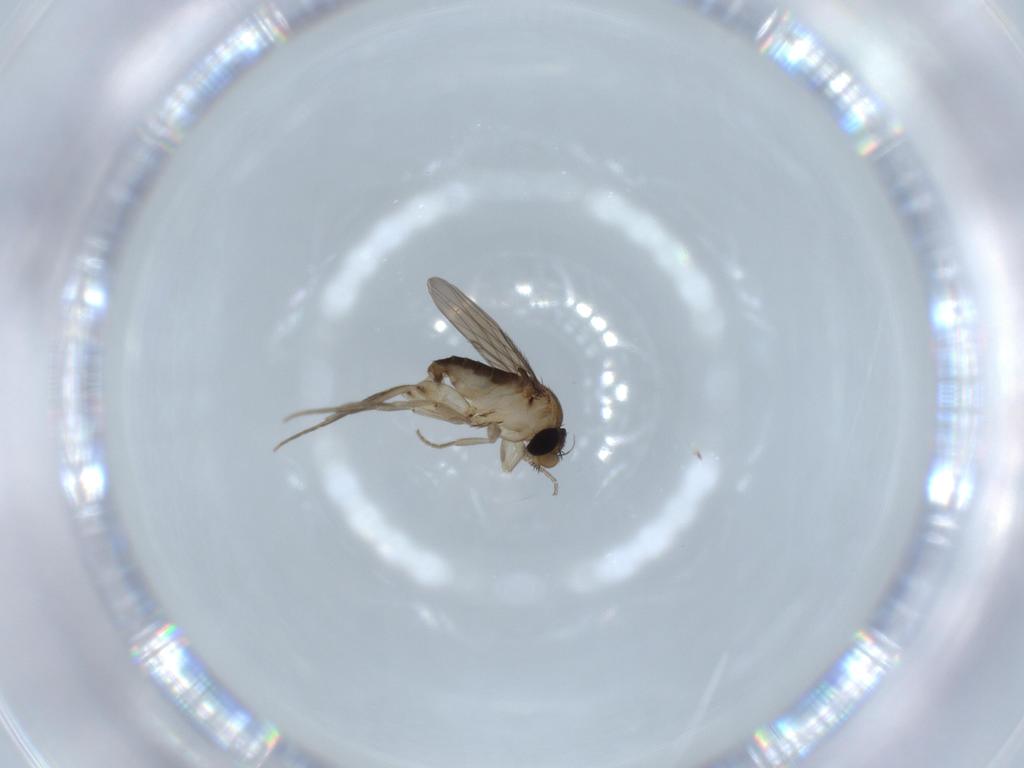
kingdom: Animalia
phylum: Arthropoda
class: Insecta
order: Diptera
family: Phoridae
